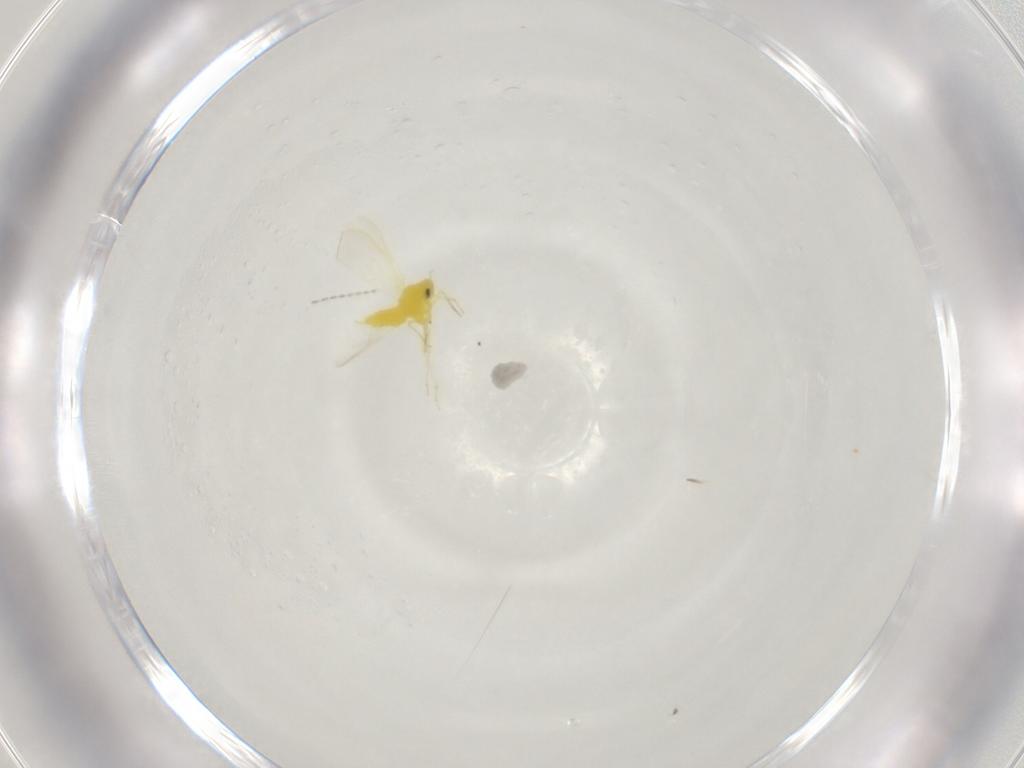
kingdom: Animalia
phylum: Arthropoda
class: Insecta
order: Hemiptera
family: Aleyrodidae
